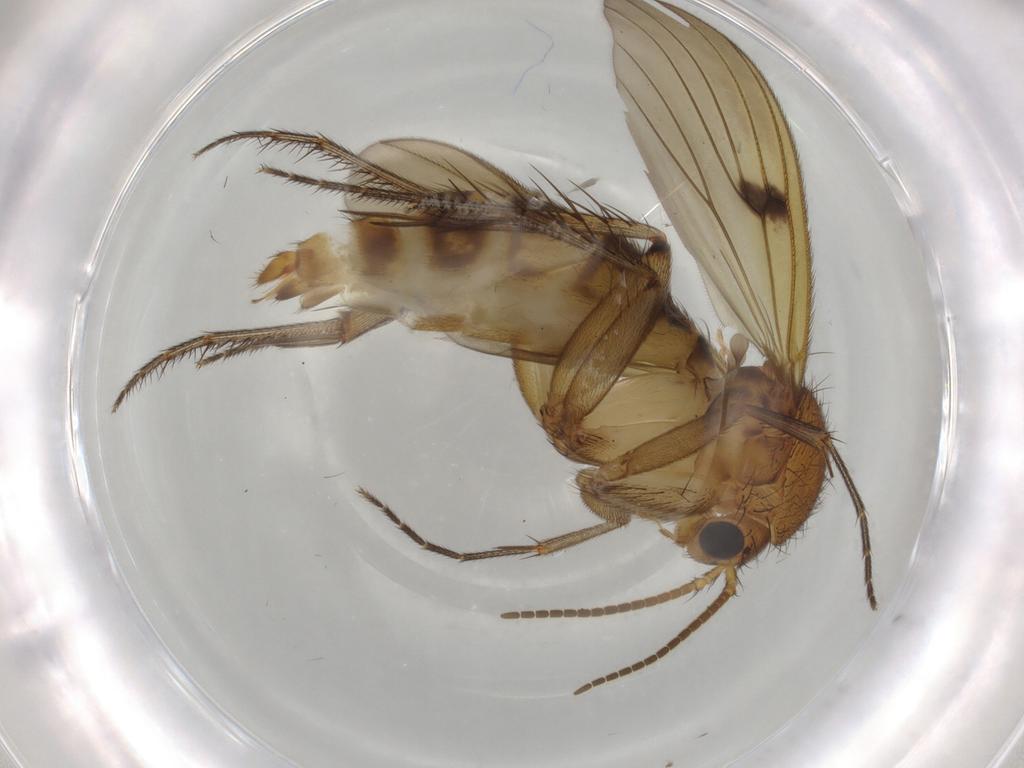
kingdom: Animalia
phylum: Arthropoda
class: Insecta
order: Diptera
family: Mycetophilidae
